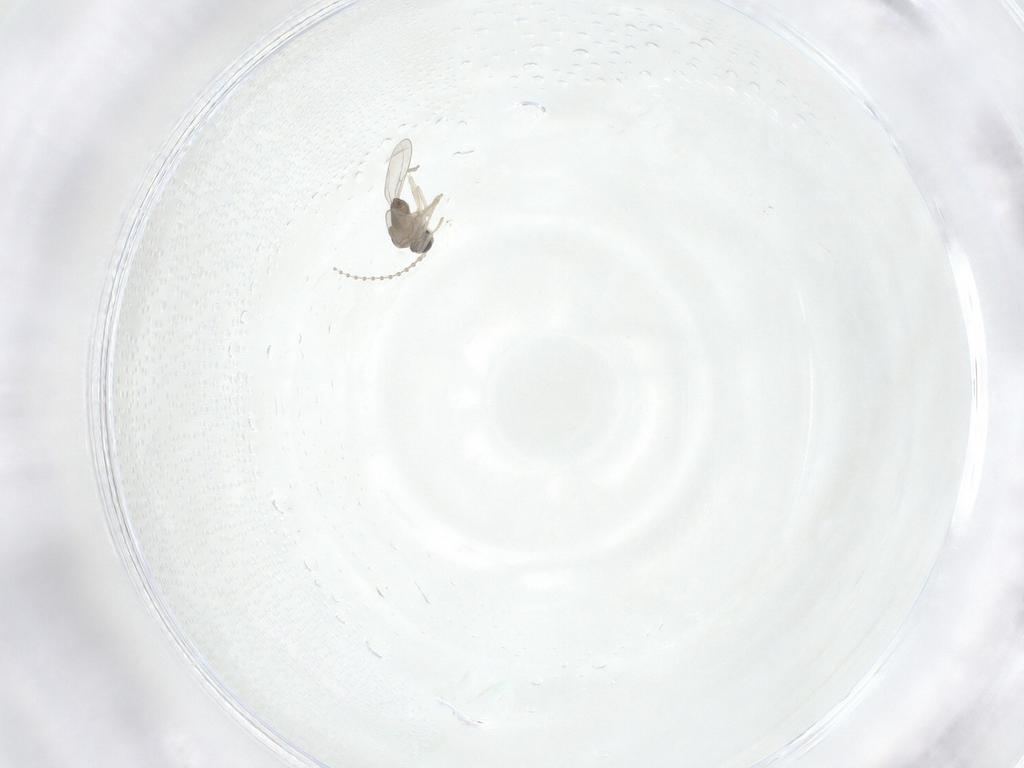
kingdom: Animalia
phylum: Arthropoda
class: Insecta
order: Diptera
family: Cecidomyiidae
